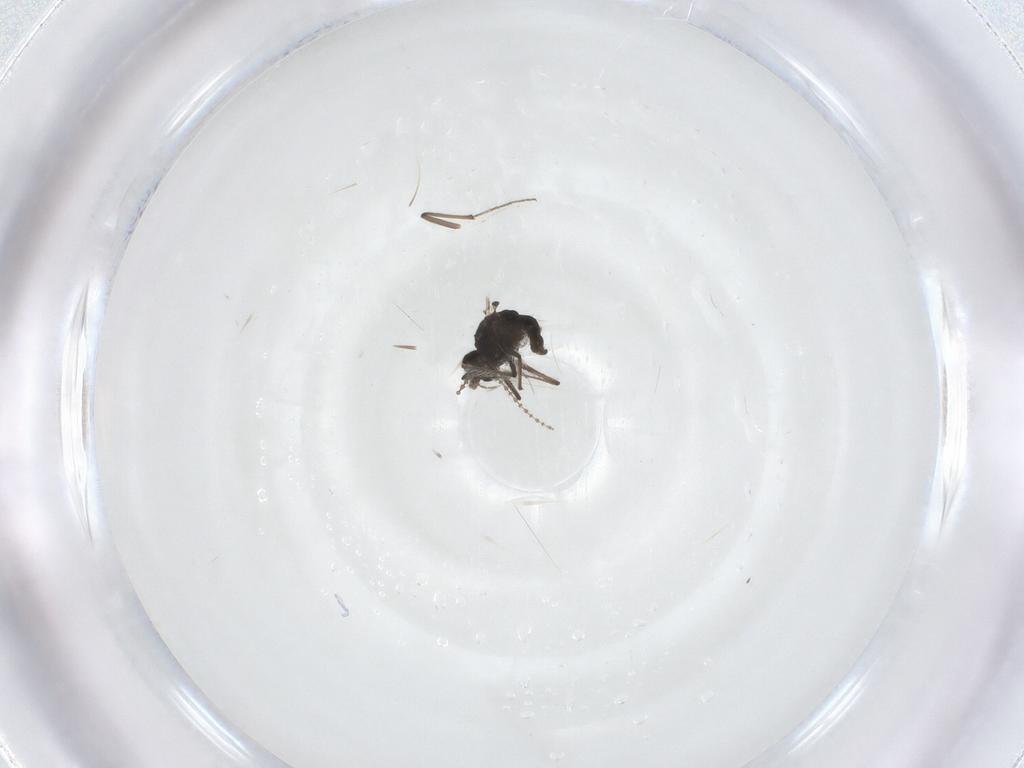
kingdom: Animalia
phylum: Arthropoda
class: Insecta
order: Diptera
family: Chironomidae
